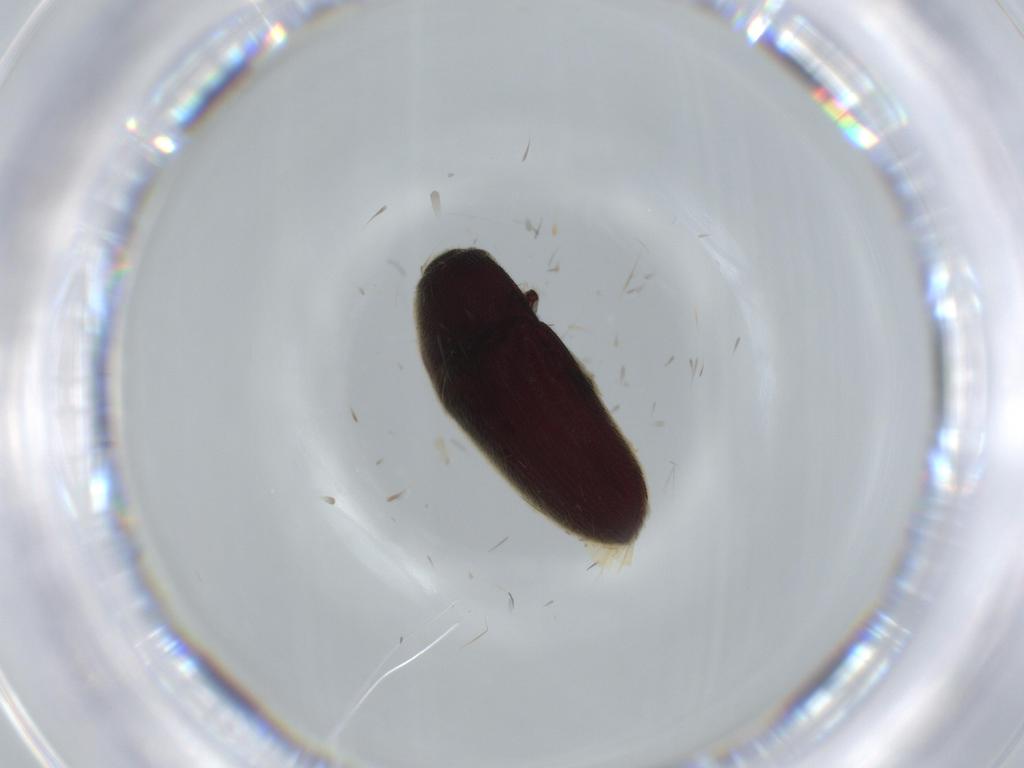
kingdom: Animalia
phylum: Arthropoda
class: Insecta
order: Coleoptera
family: Throscidae
